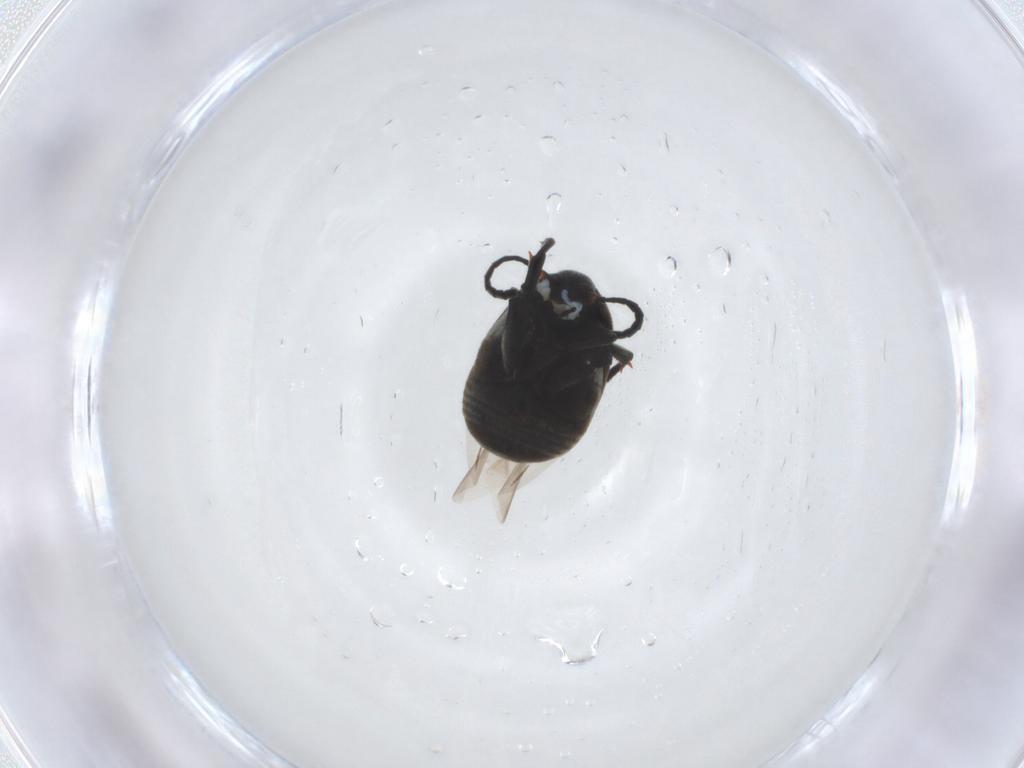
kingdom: Animalia
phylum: Arthropoda
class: Insecta
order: Coleoptera
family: Chrysomelidae
